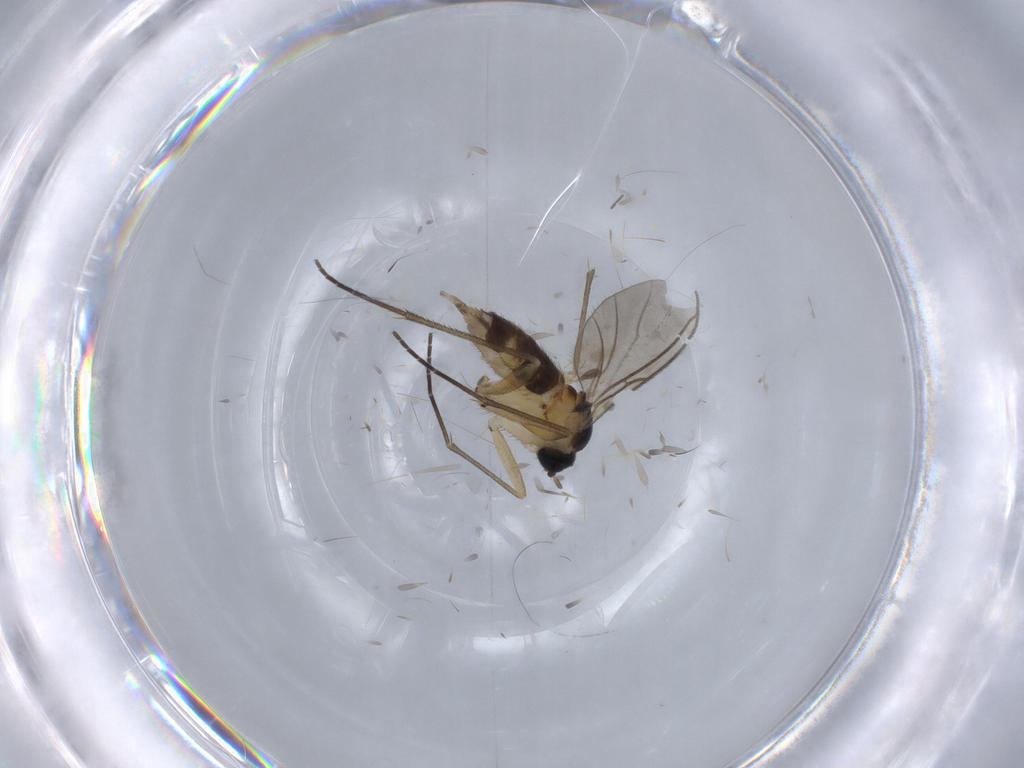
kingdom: Animalia
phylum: Arthropoda
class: Insecta
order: Diptera
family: Sciaridae
